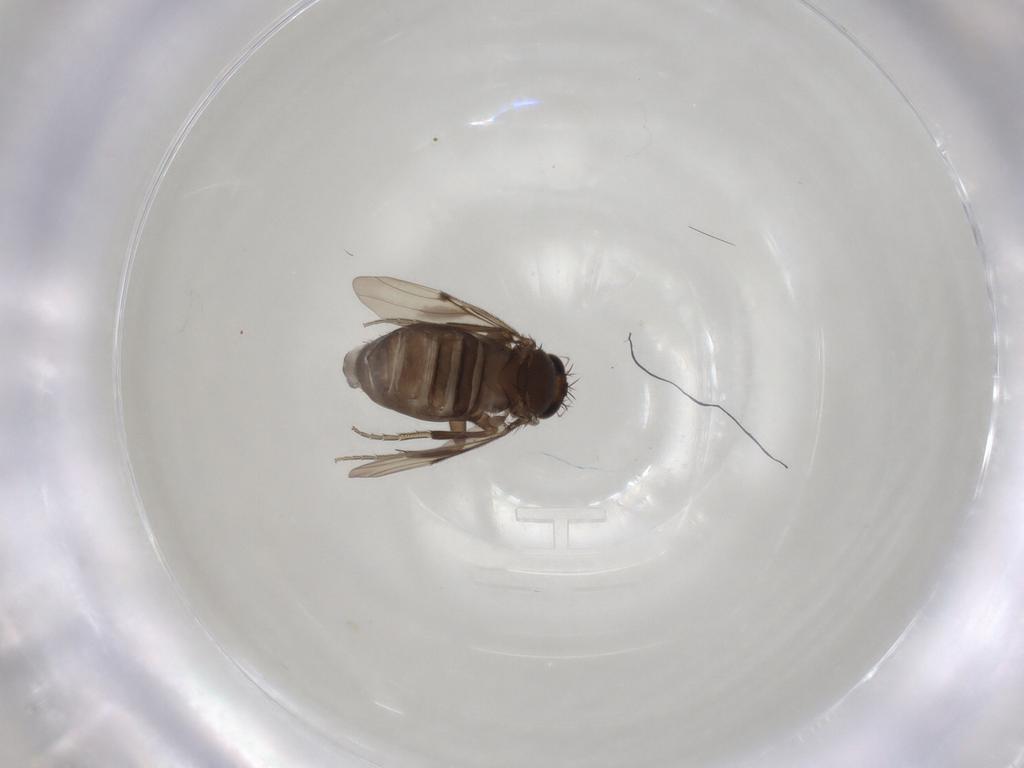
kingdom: Animalia
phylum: Arthropoda
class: Insecta
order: Diptera
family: Phoridae
